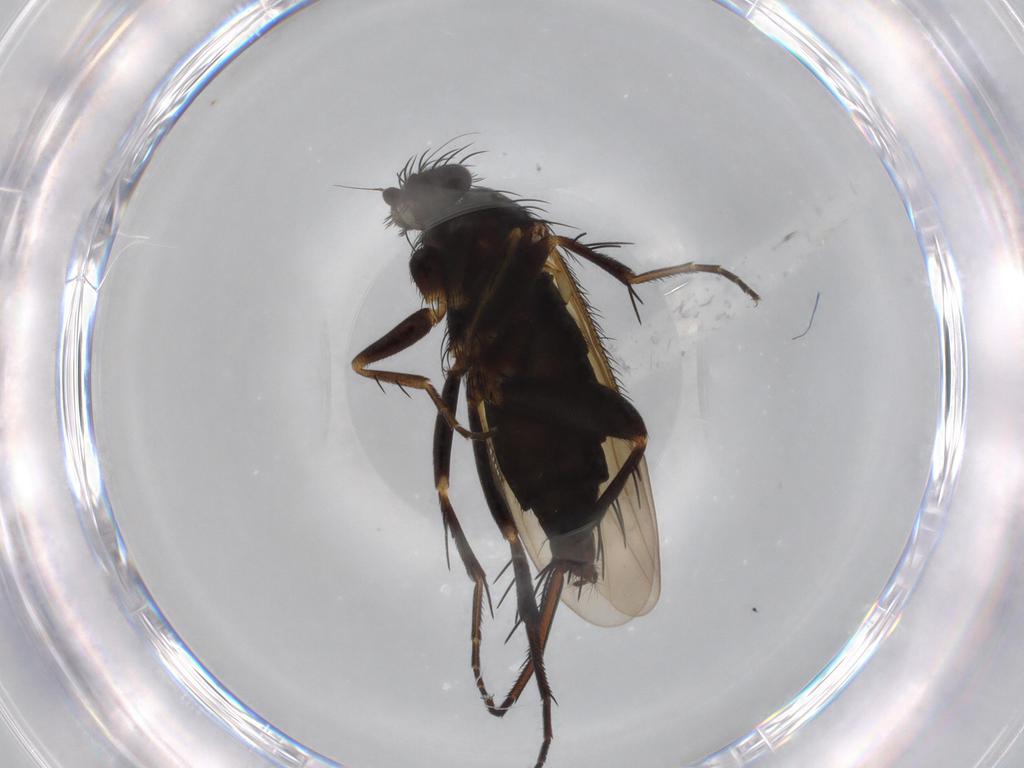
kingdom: Animalia
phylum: Arthropoda
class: Insecta
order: Diptera
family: Phoridae
